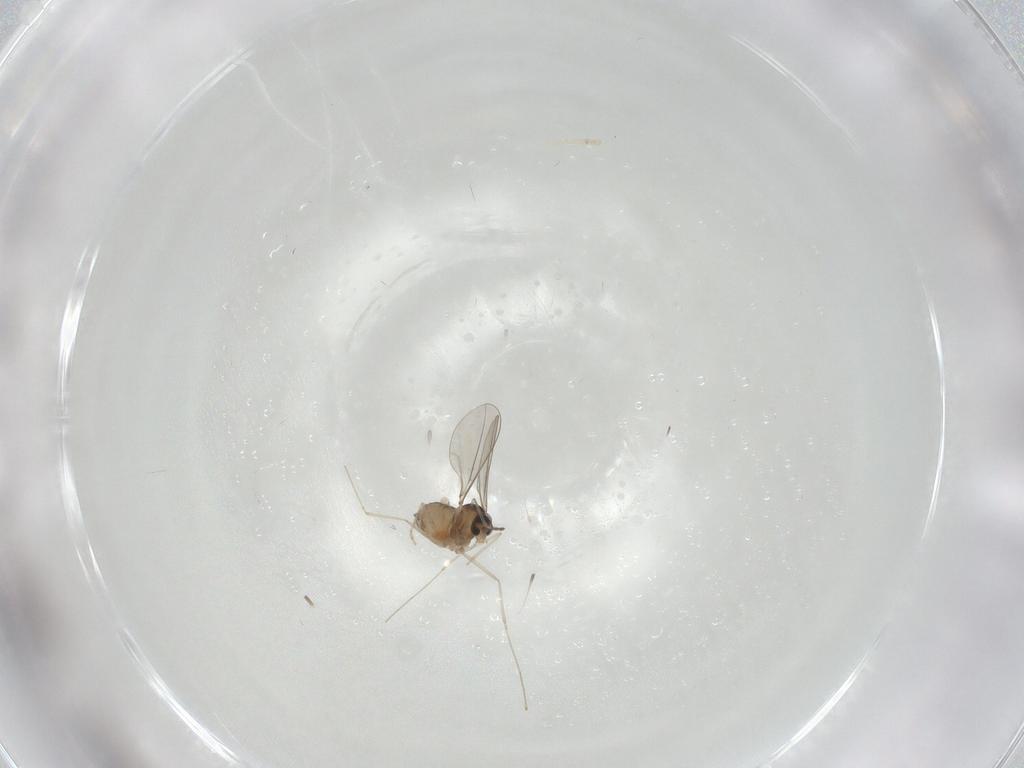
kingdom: Animalia
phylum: Arthropoda
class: Insecta
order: Diptera
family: Cecidomyiidae
